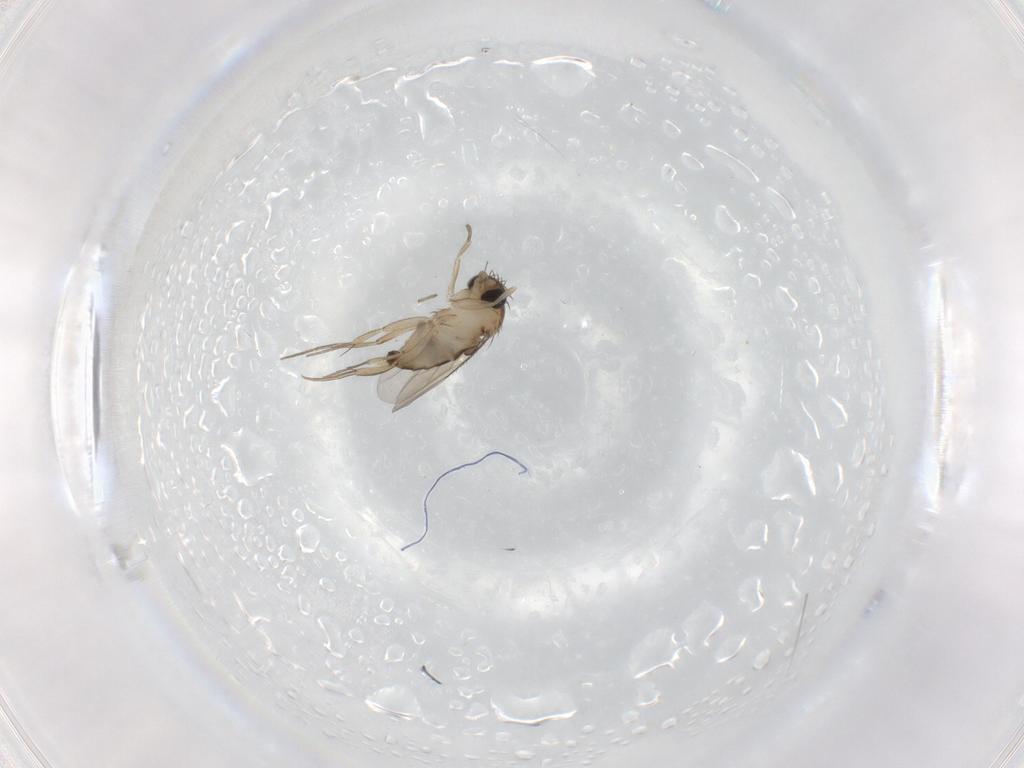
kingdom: Animalia
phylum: Arthropoda
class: Insecta
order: Diptera
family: Phoridae
